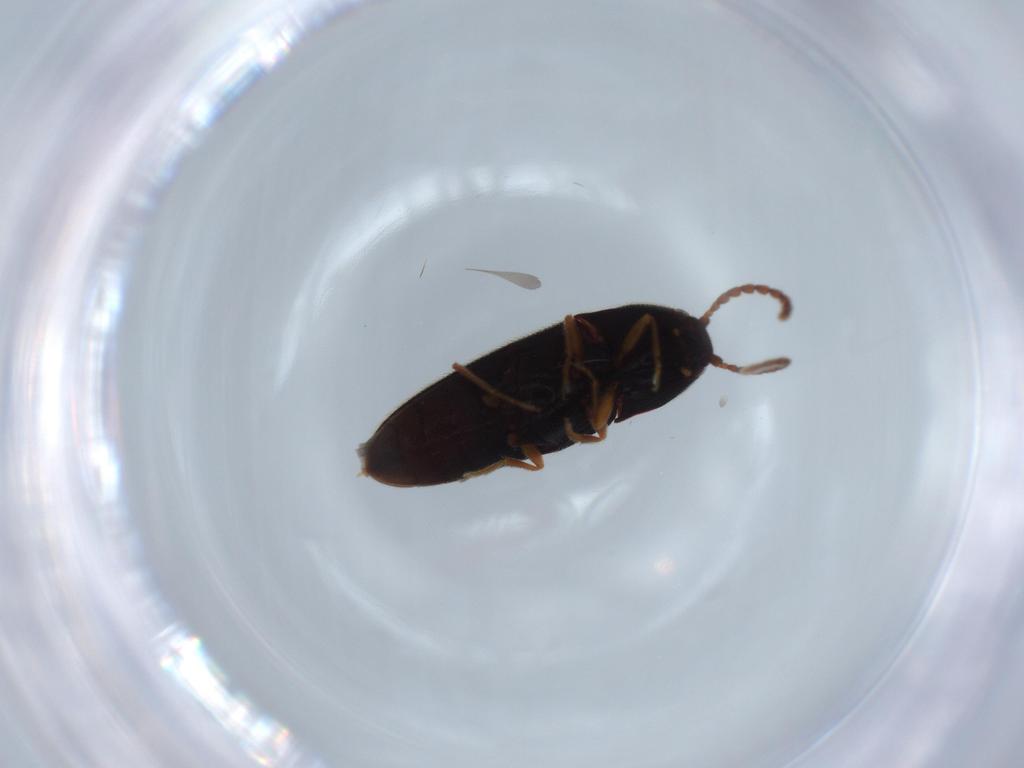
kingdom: Animalia
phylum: Arthropoda
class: Insecta
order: Coleoptera
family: Elateridae
